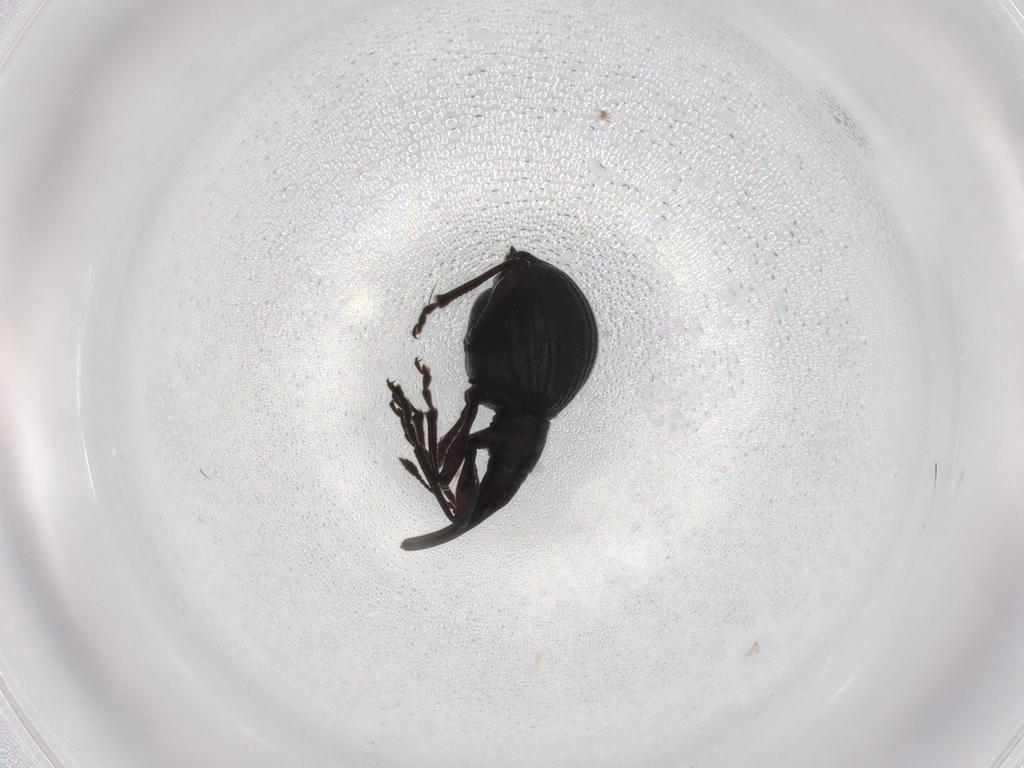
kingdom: Animalia
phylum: Arthropoda
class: Insecta
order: Coleoptera
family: Brentidae
